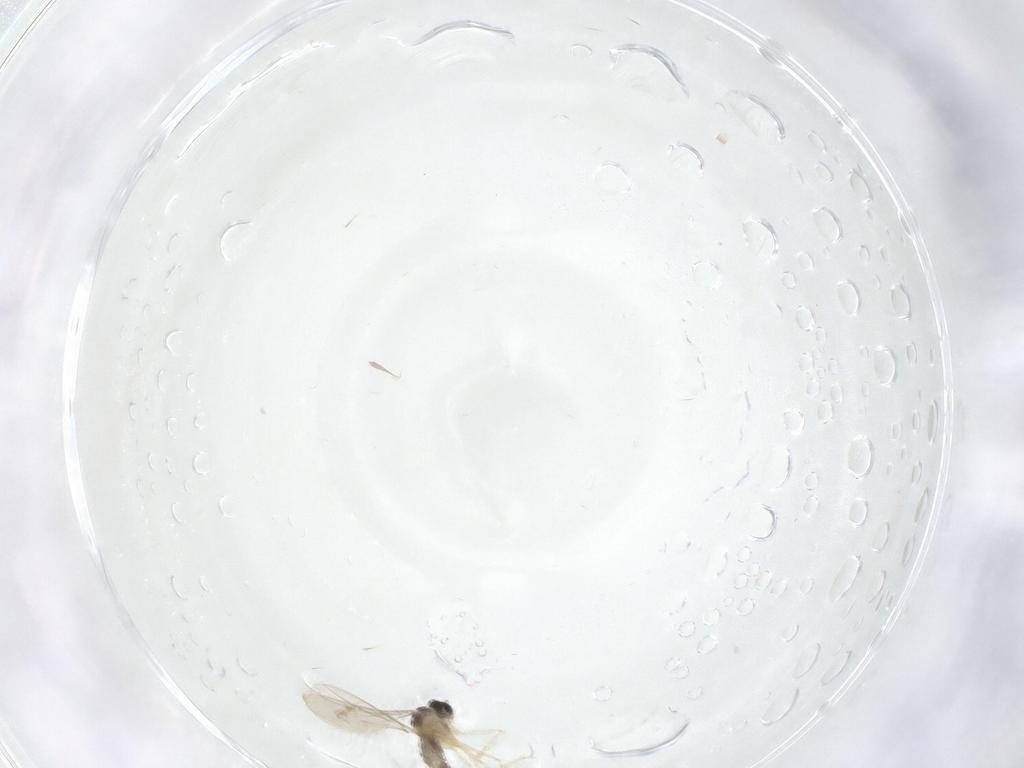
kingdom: Animalia
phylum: Arthropoda
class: Insecta
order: Diptera
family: Cecidomyiidae
